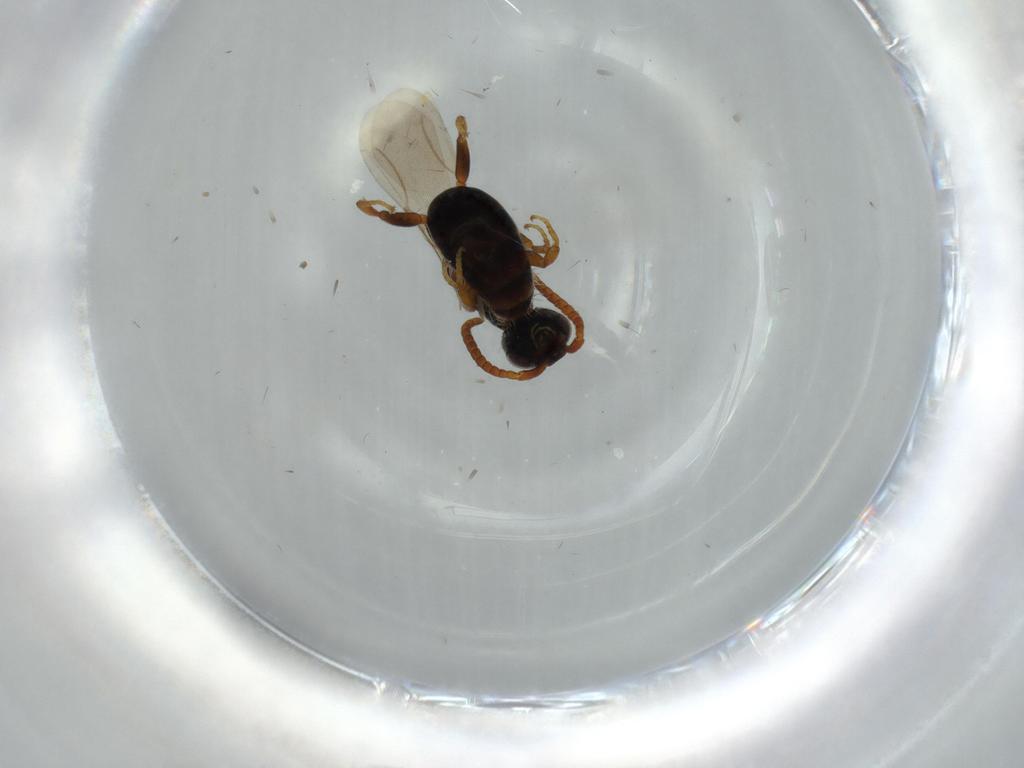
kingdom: Animalia
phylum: Arthropoda
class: Insecta
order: Hymenoptera
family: Bethylidae
